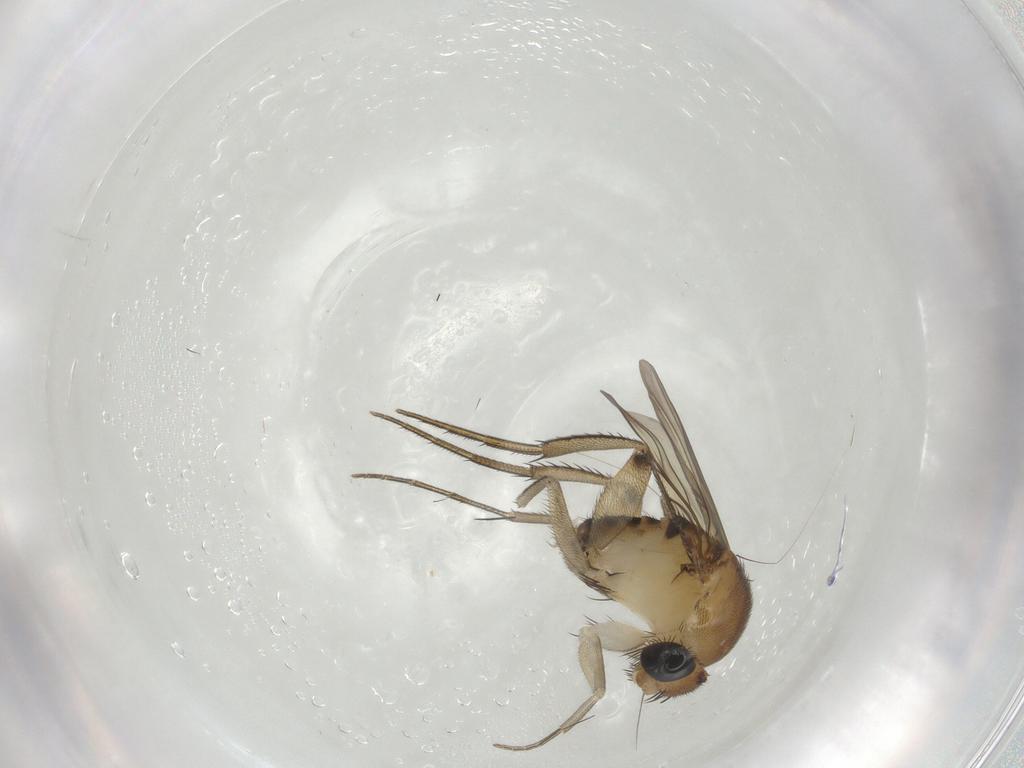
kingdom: Animalia
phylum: Arthropoda
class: Insecta
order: Diptera
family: Phoridae
